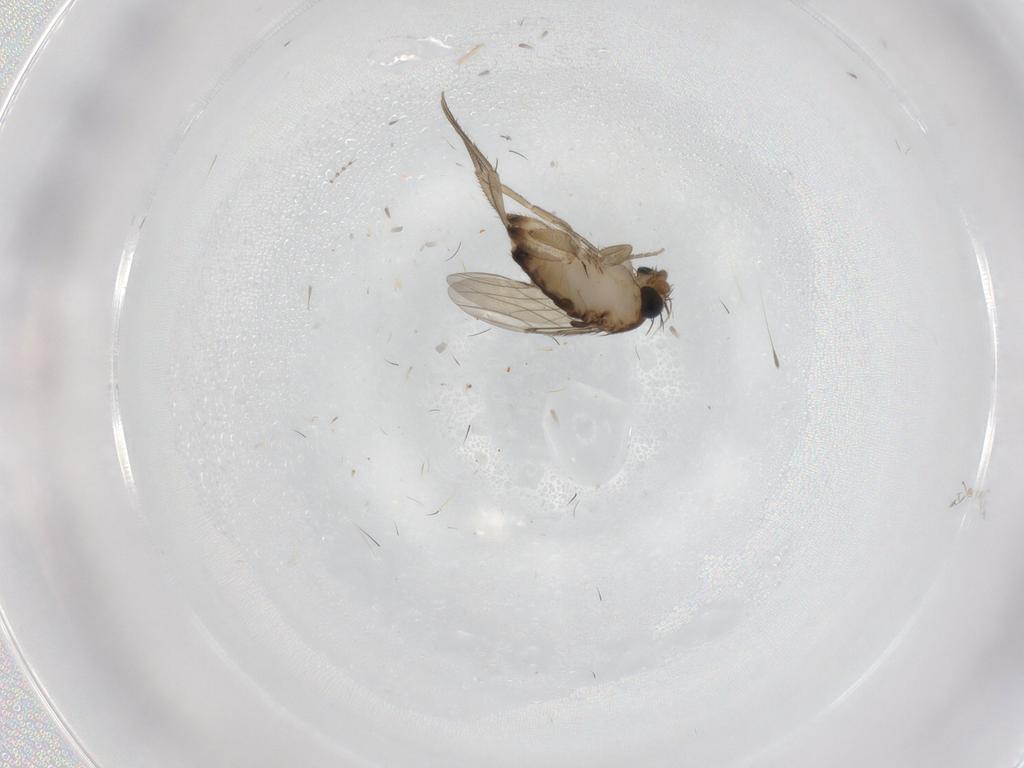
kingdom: Animalia
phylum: Arthropoda
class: Insecta
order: Diptera
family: Phoridae
